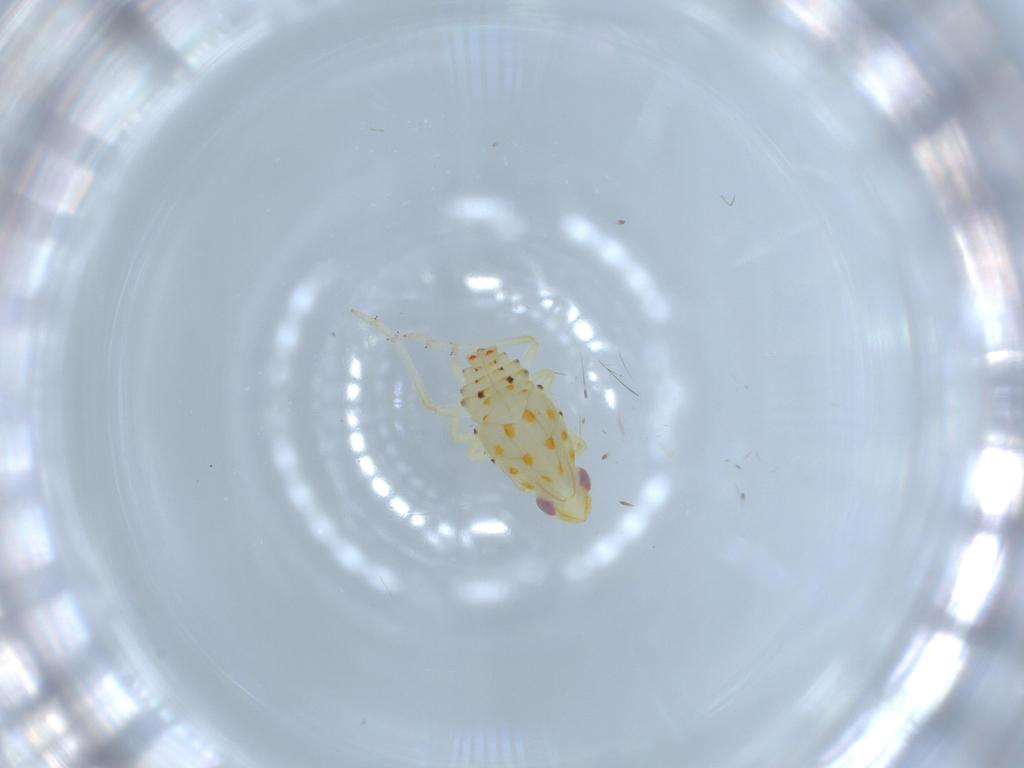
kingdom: Animalia
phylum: Arthropoda
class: Insecta
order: Hemiptera
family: Tropiduchidae
